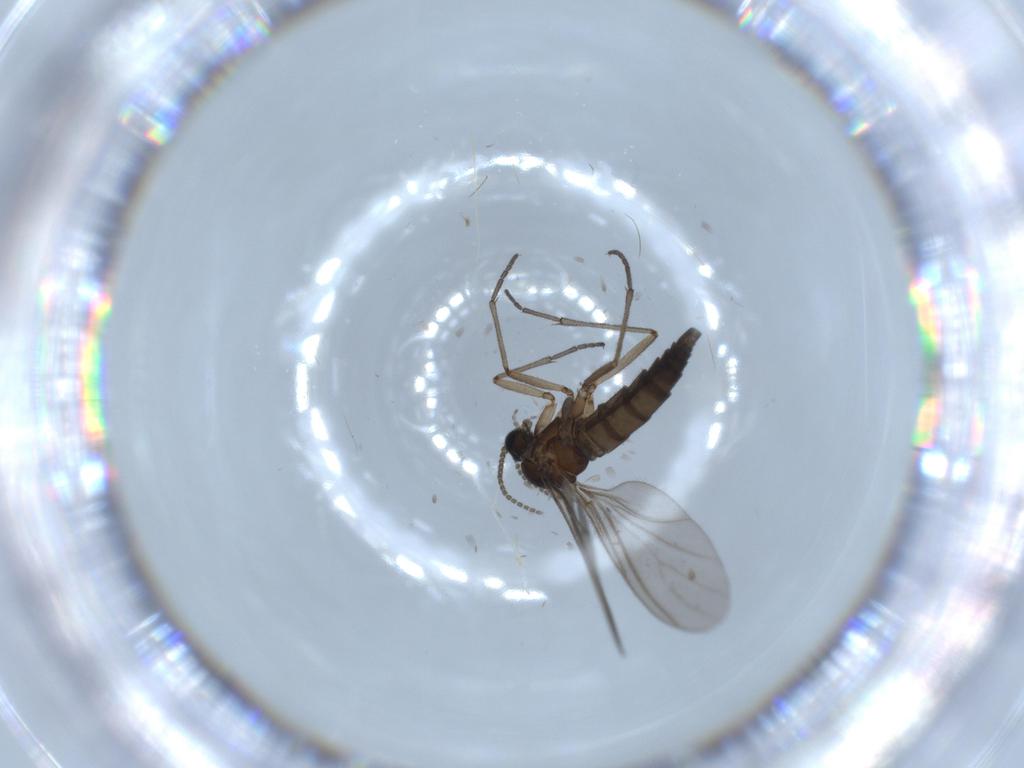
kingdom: Animalia
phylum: Arthropoda
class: Insecta
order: Diptera
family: Sciaridae
